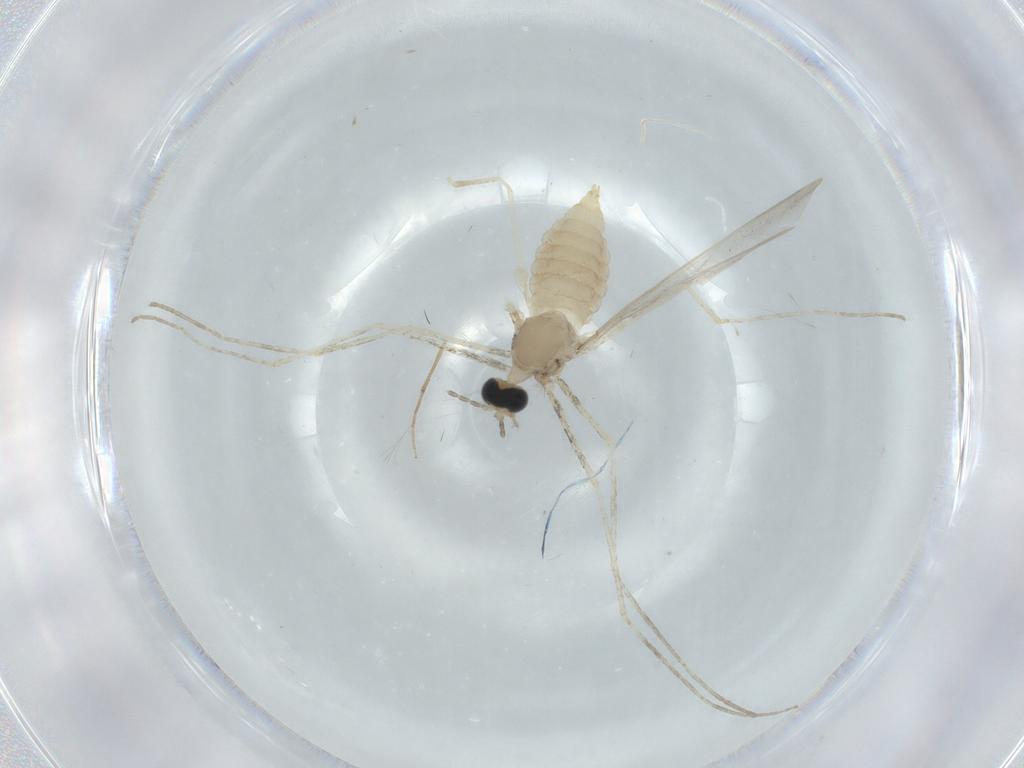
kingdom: Animalia
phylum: Arthropoda
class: Insecta
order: Diptera
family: Cecidomyiidae
